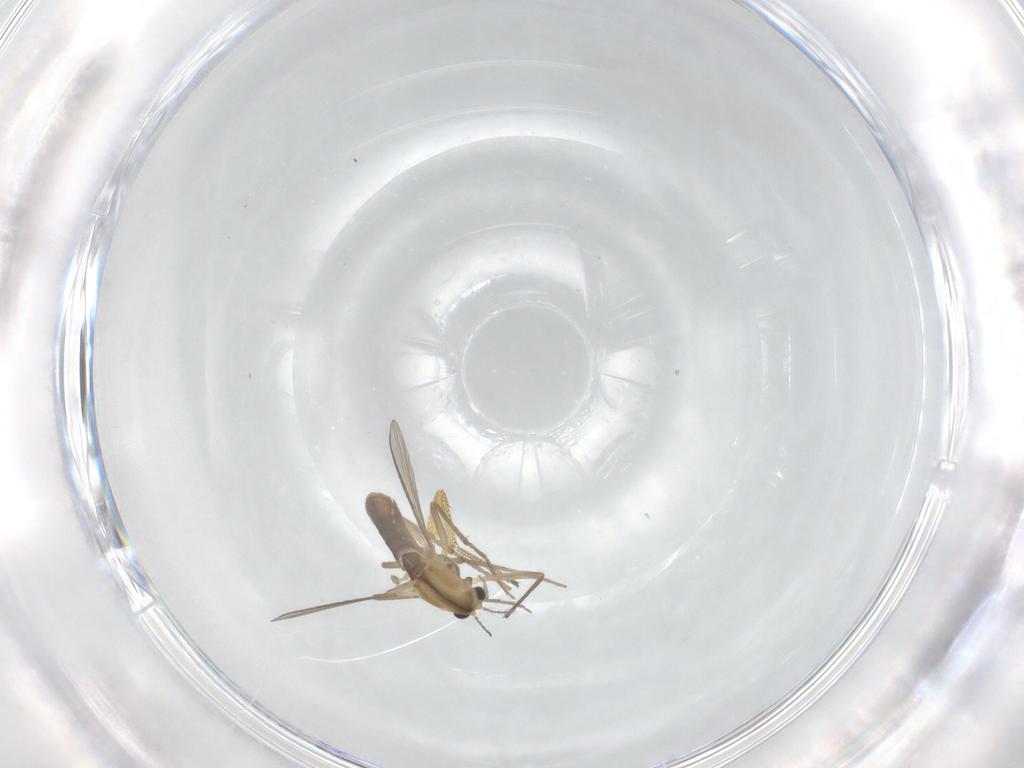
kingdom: Animalia
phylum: Arthropoda
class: Insecta
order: Diptera
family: Chironomidae
